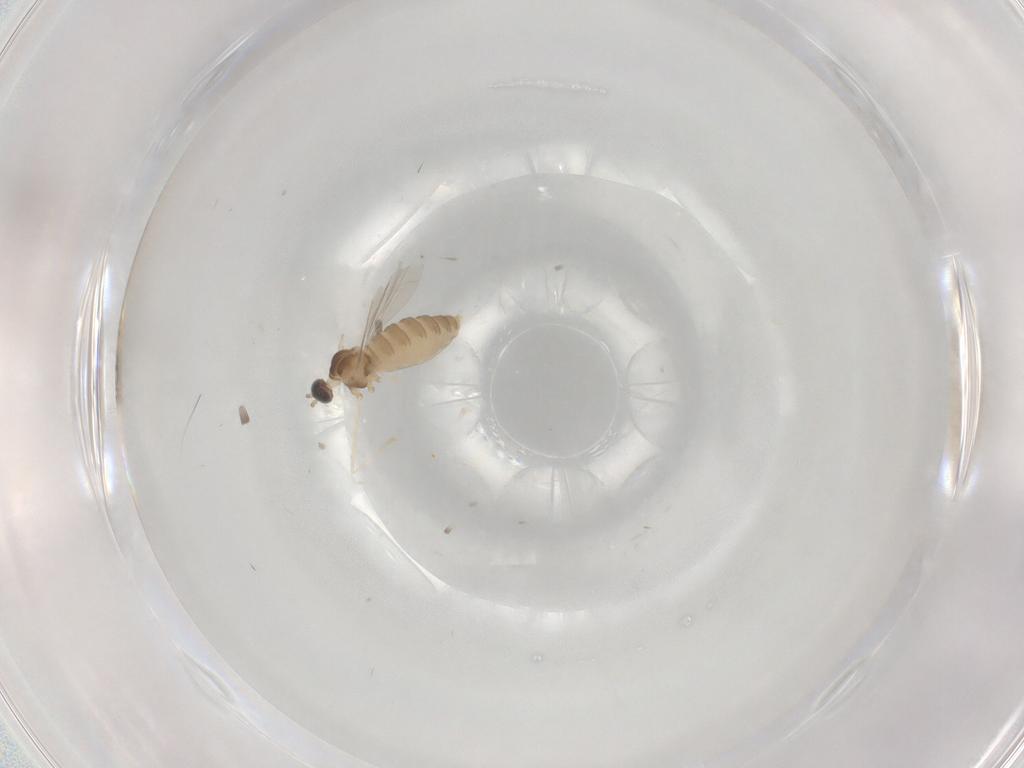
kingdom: Animalia
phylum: Arthropoda
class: Insecta
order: Diptera
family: Cecidomyiidae
